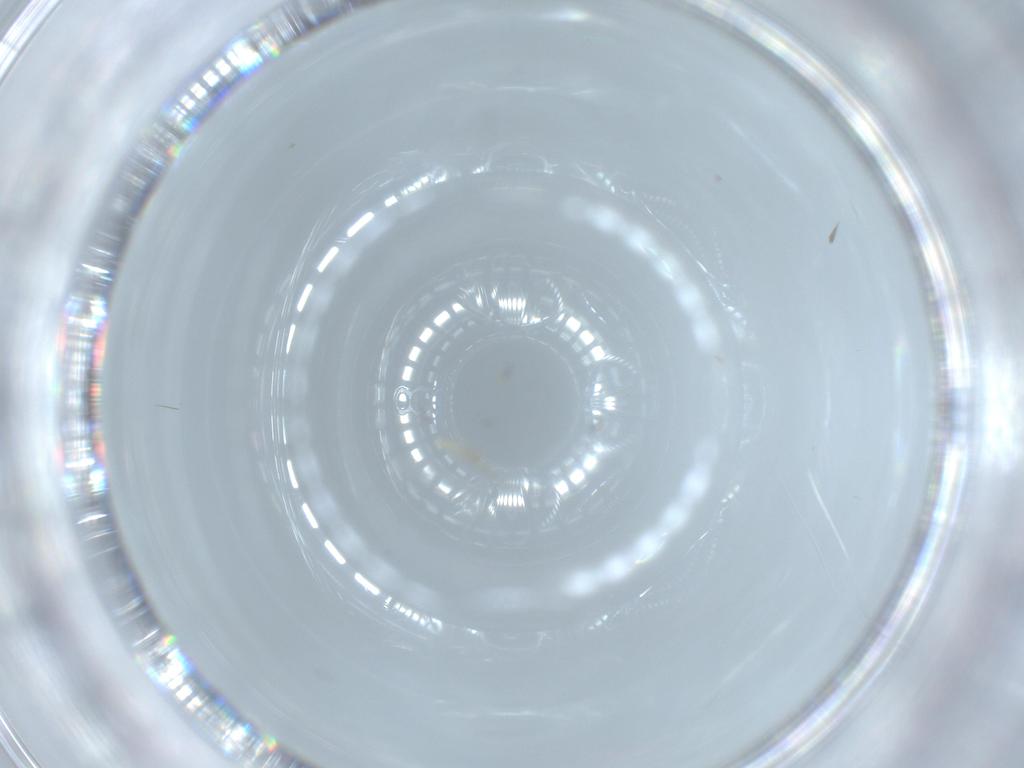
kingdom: Animalia
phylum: Arthropoda
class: Insecta
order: Diptera
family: Ceratopogonidae
